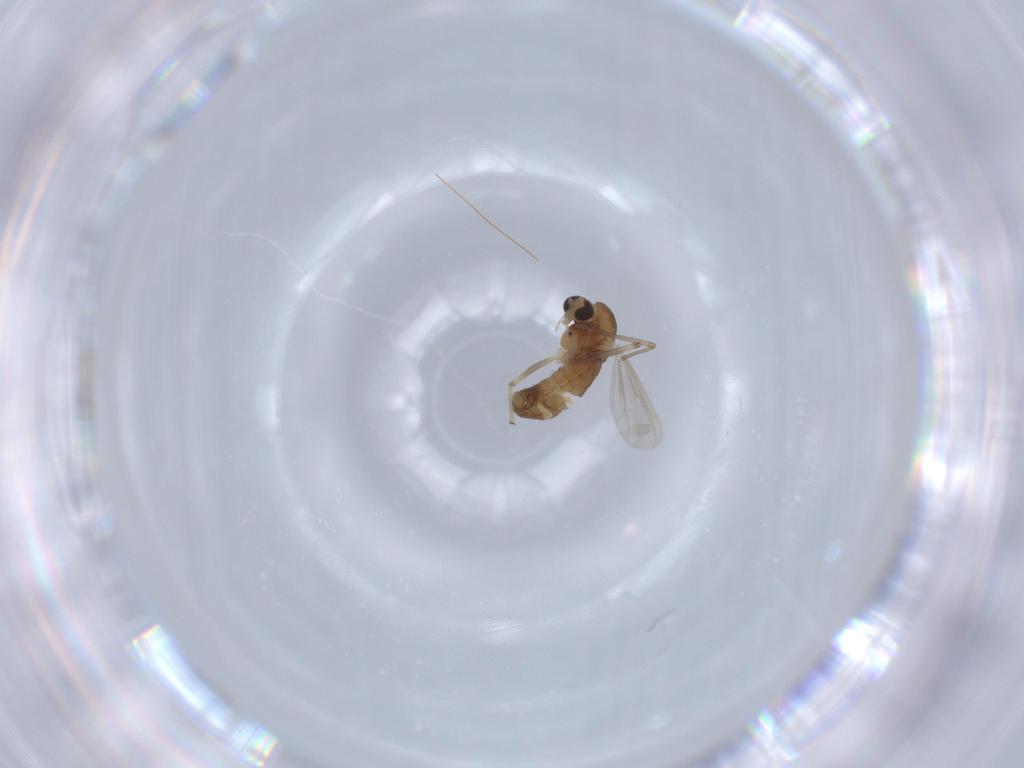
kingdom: Animalia
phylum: Arthropoda
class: Insecta
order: Diptera
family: Chironomidae
